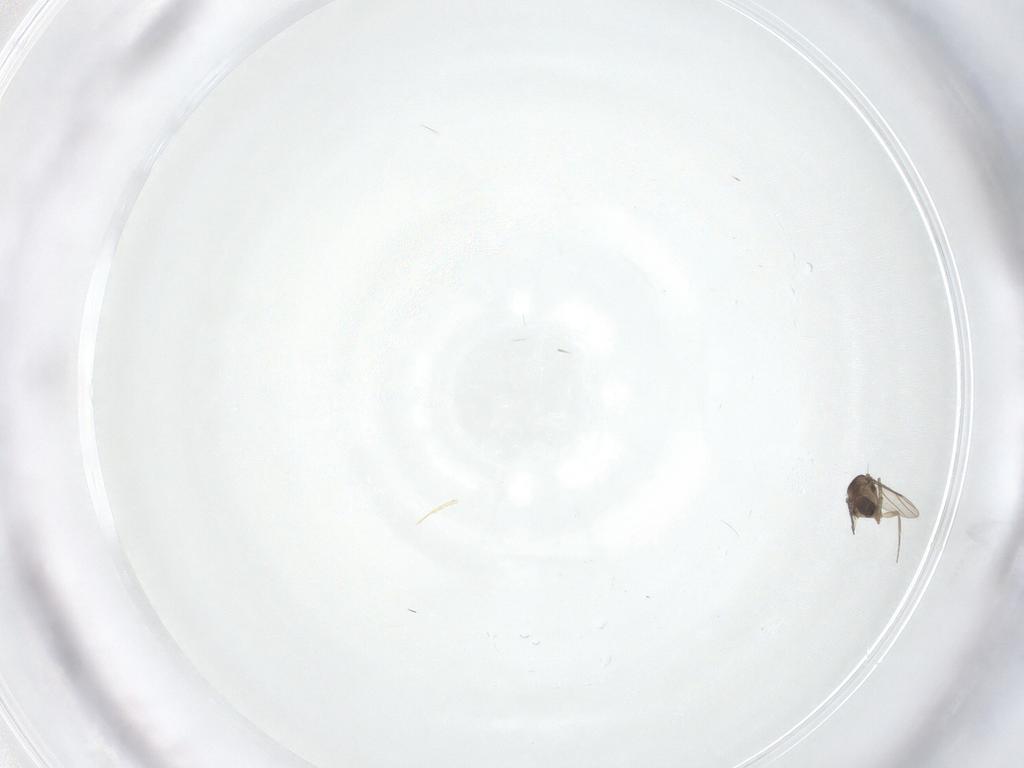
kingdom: Animalia
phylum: Arthropoda
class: Insecta
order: Diptera
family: Phoridae
